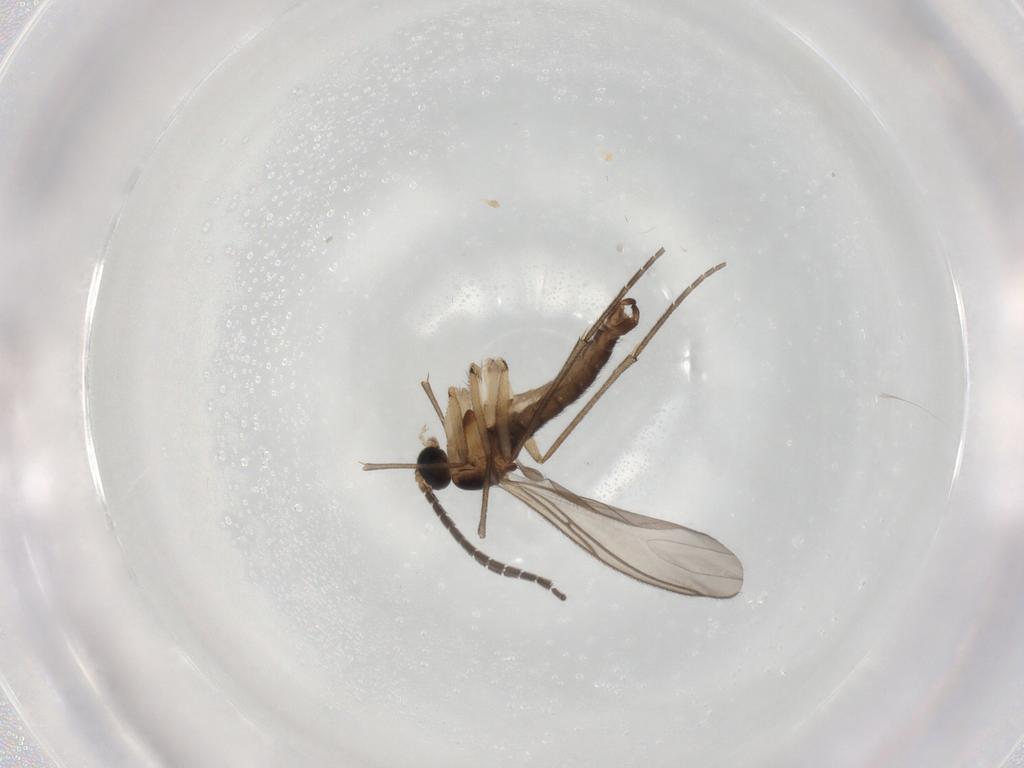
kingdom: Animalia
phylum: Arthropoda
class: Insecta
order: Diptera
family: Sciaridae
